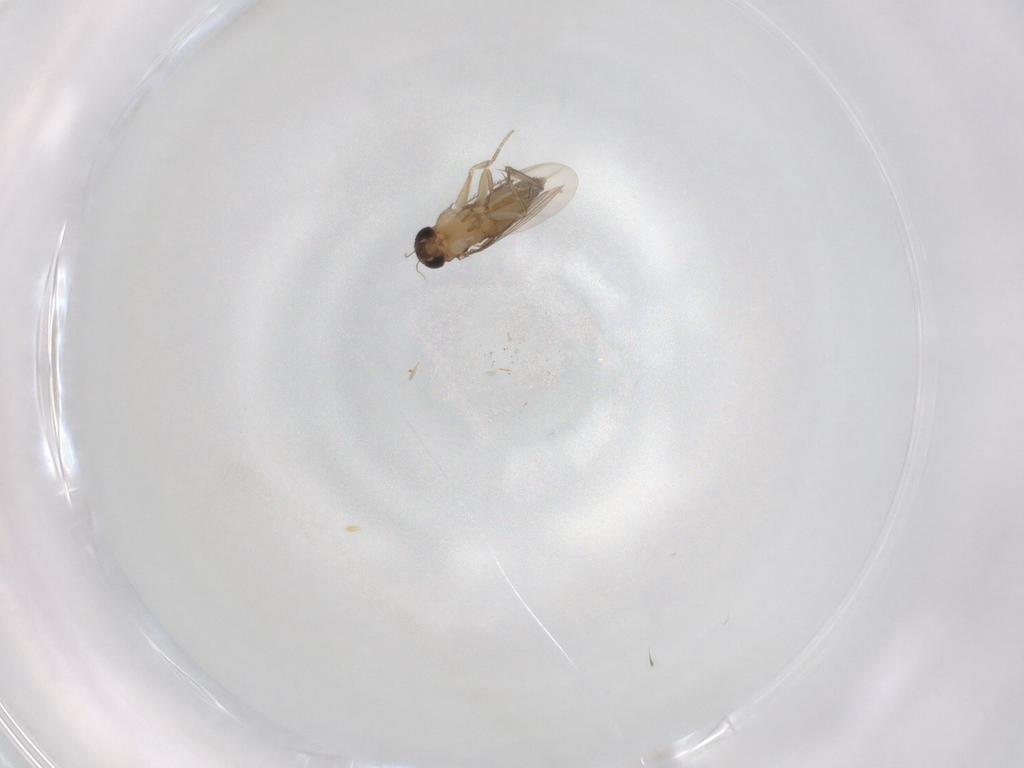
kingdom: Animalia
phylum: Arthropoda
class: Insecta
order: Diptera
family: Phoridae
